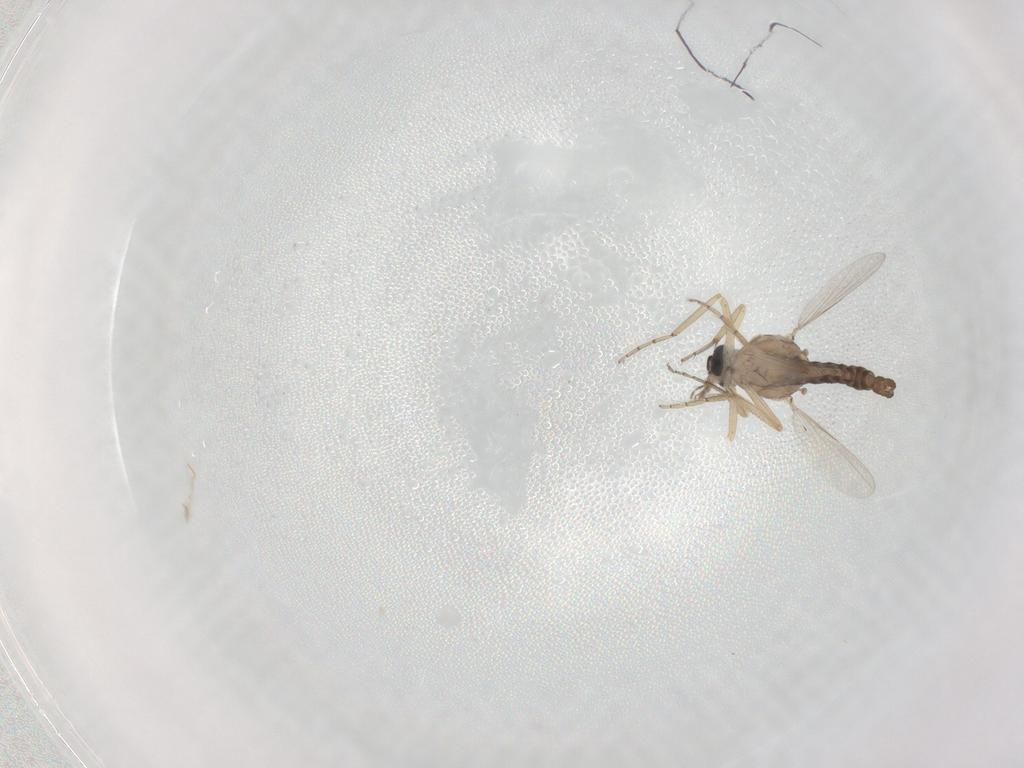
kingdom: Animalia
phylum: Arthropoda
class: Insecta
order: Diptera
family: Ceratopogonidae
